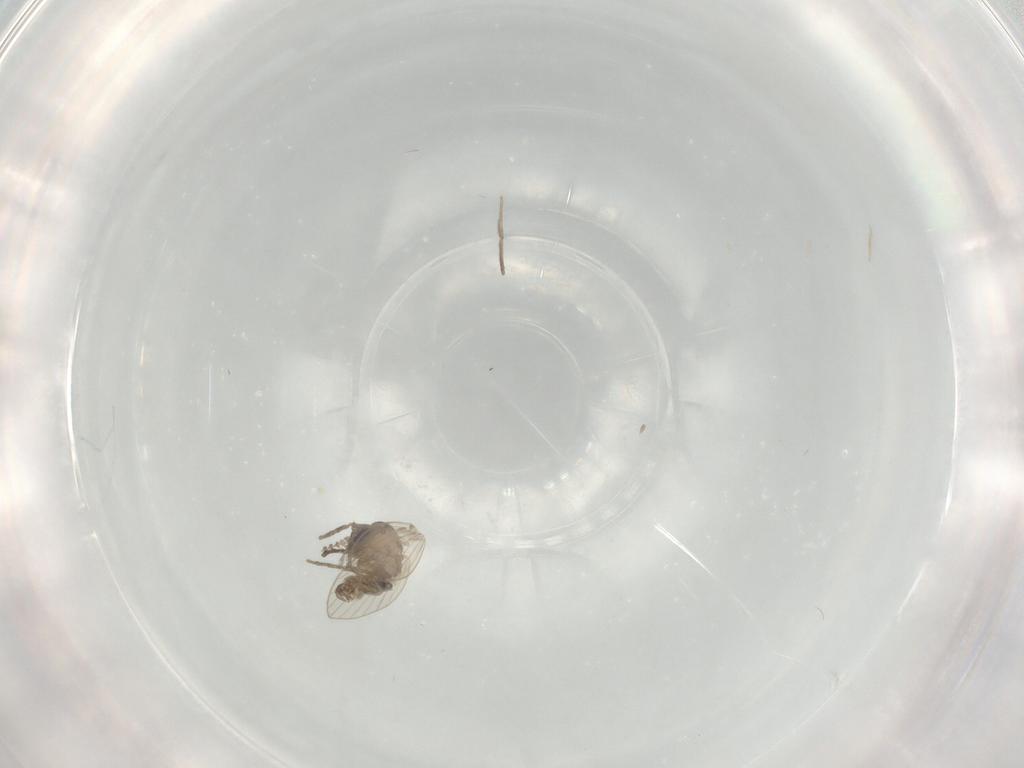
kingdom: Animalia
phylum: Arthropoda
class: Insecta
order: Diptera
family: Psychodidae
